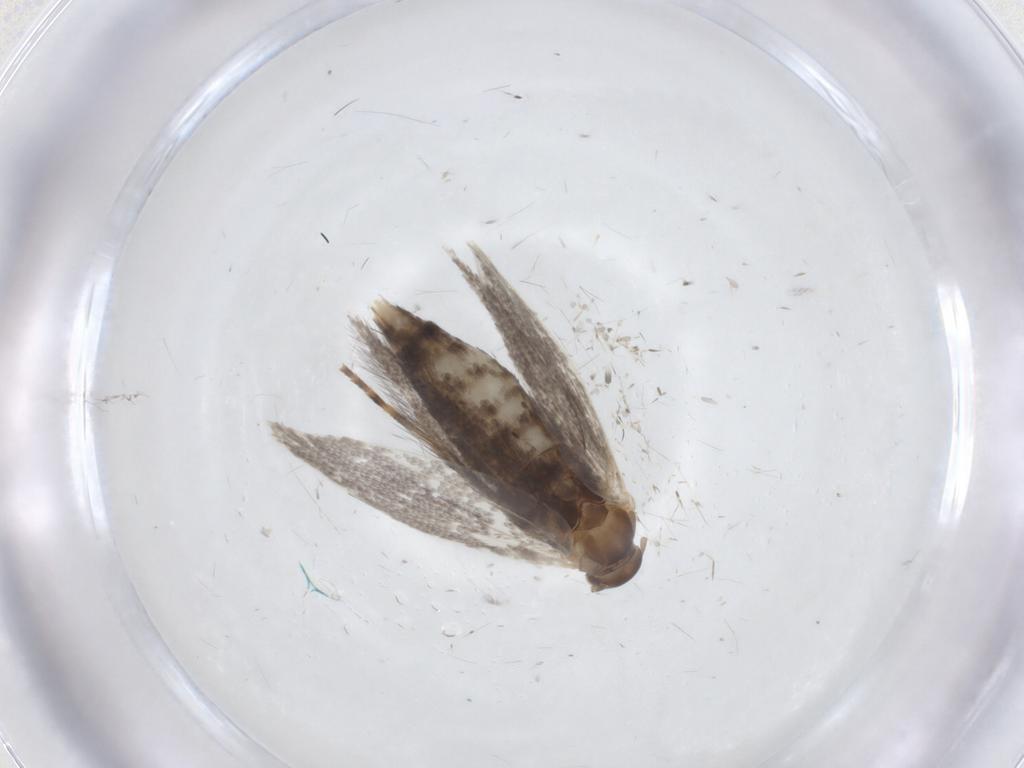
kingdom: Animalia
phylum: Arthropoda
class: Insecta
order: Lepidoptera
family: Elachistidae
